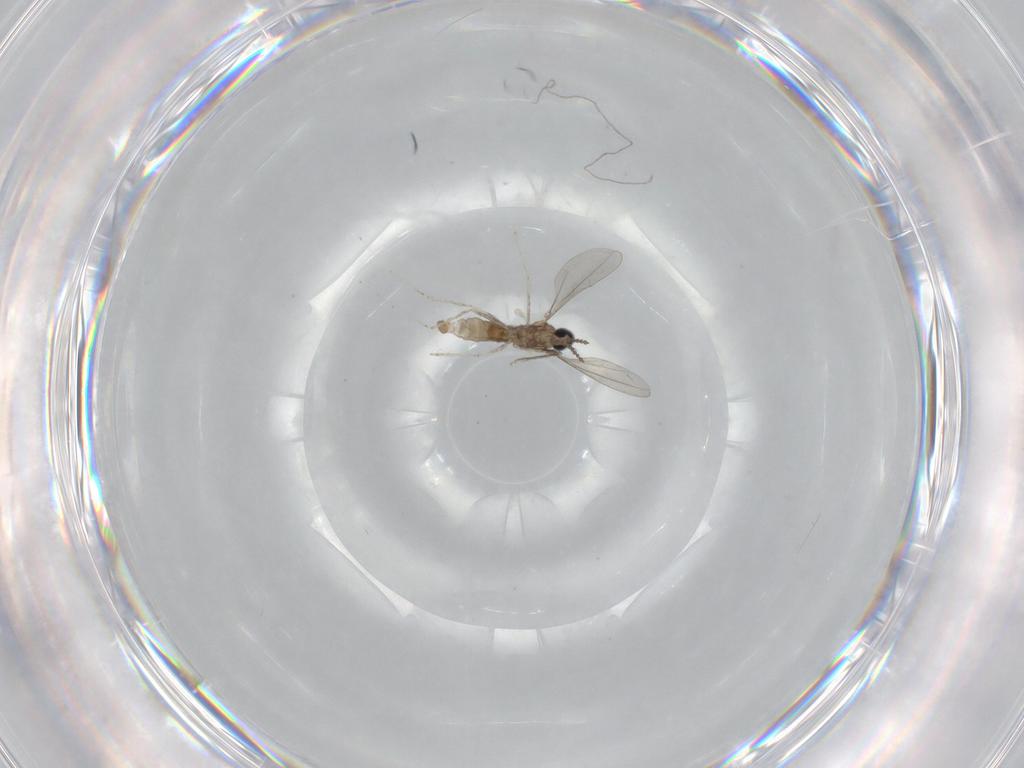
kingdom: Animalia
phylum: Arthropoda
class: Insecta
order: Diptera
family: Cecidomyiidae
